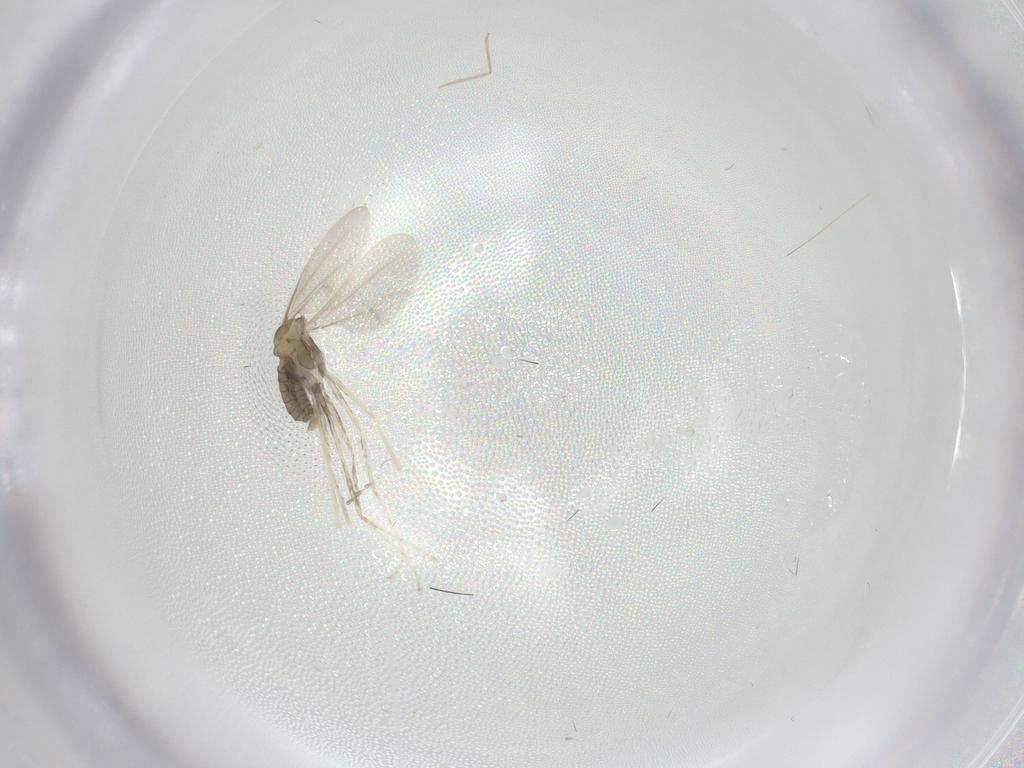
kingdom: Animalia
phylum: Arthropoda
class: Insecta
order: Diptera
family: Cecidomyiidae
